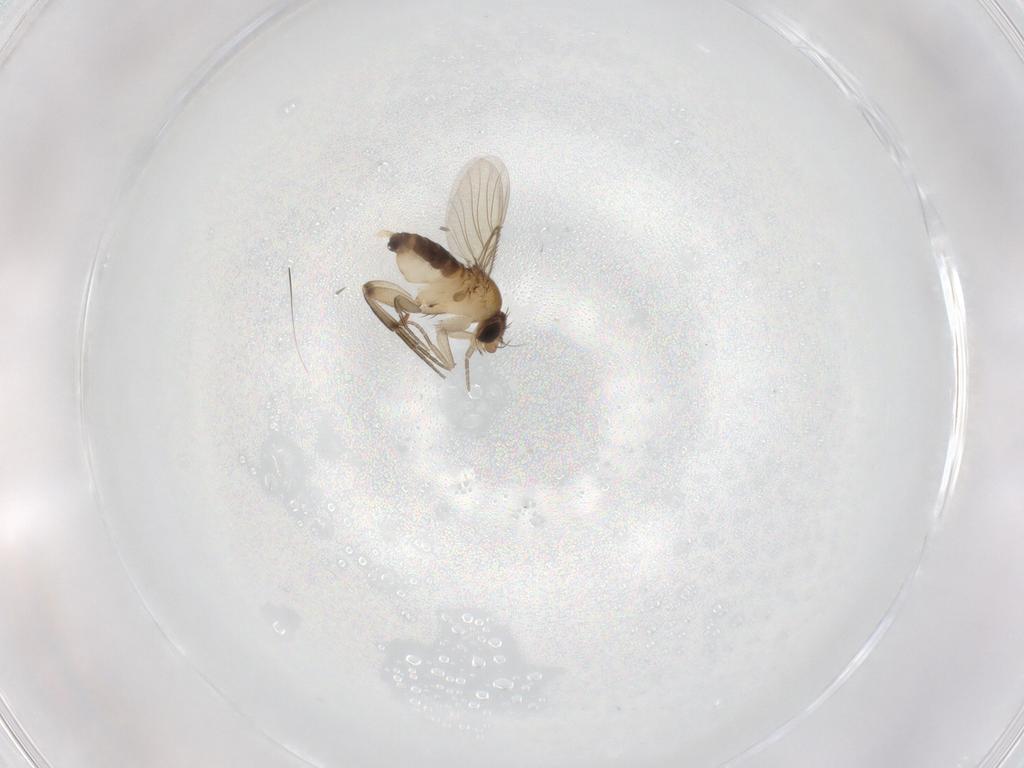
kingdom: Animalia
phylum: Arthropoda
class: Insecta
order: Diptera
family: Phoridae
